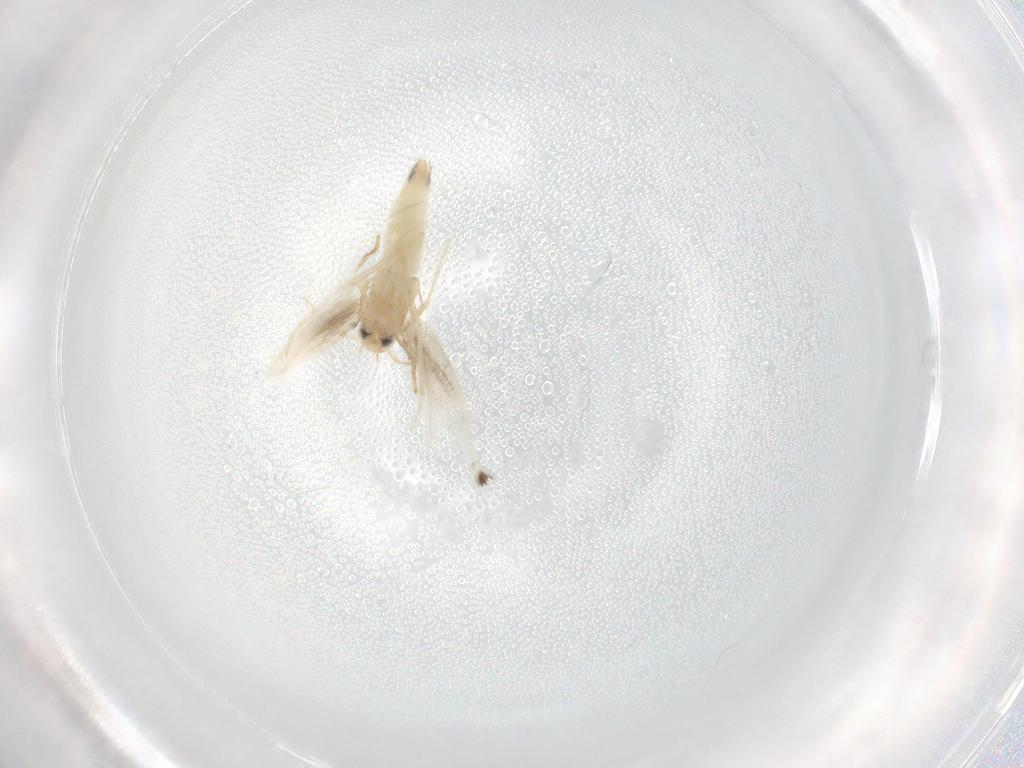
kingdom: Animalia
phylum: Arthropoda
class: Insecta
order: Lepidoptera
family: Gracillariidae
